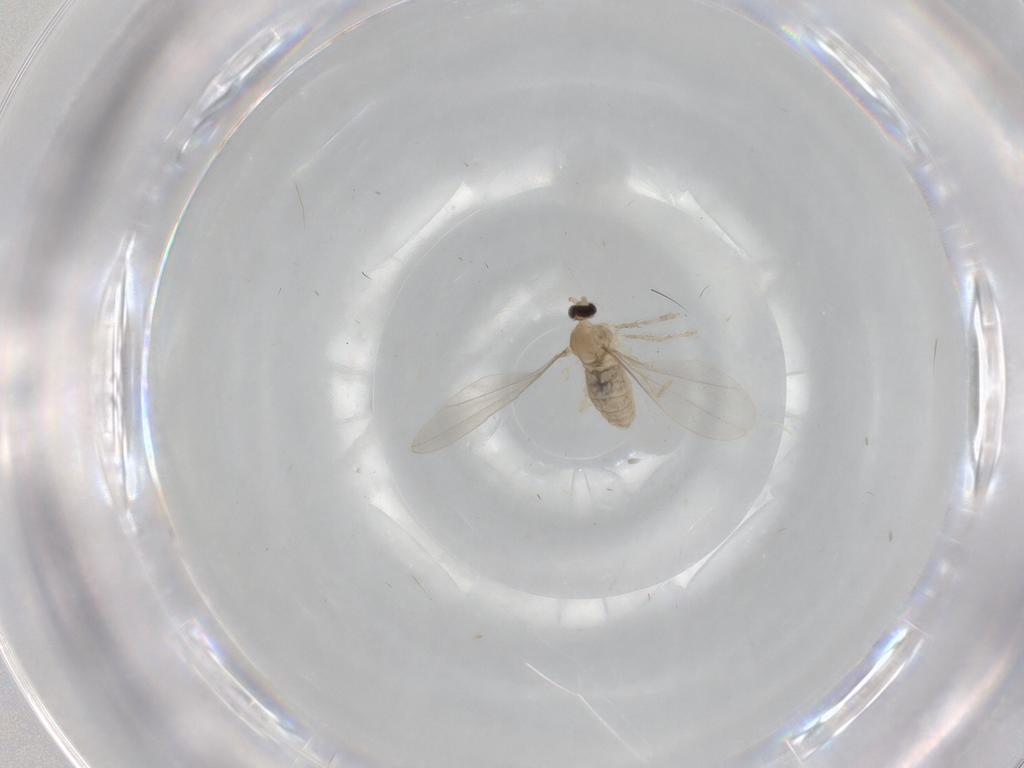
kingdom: Animalia
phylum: Arthropoda
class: Insecta
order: Diptera
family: Cecidomyiidae
